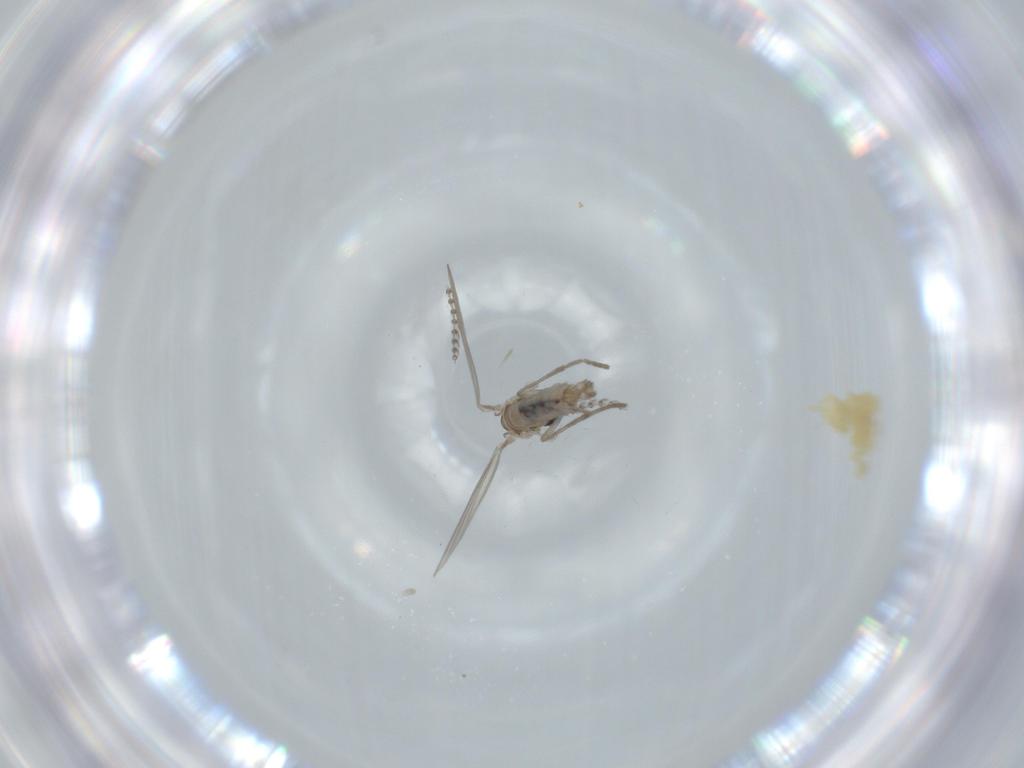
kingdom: Animalia
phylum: Arthropoda
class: Insecta
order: Diptera
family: Psychodidae
